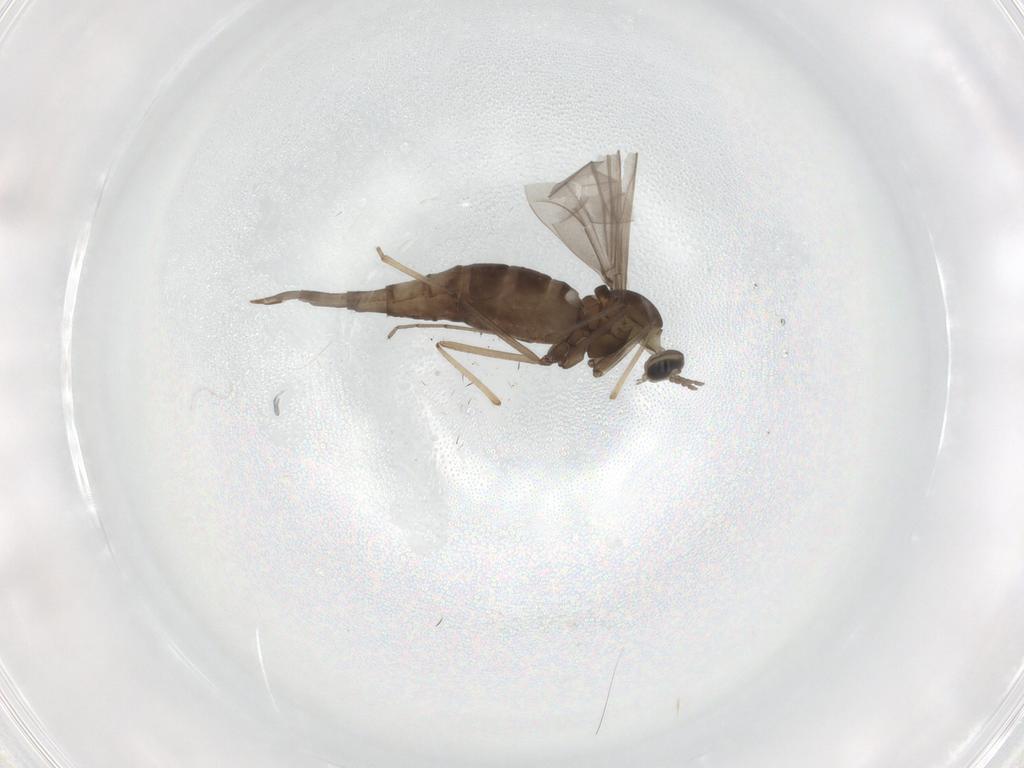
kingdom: Animalia
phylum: Arthropoda
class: Insecta
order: Diptera
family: Cecidomyiidae
